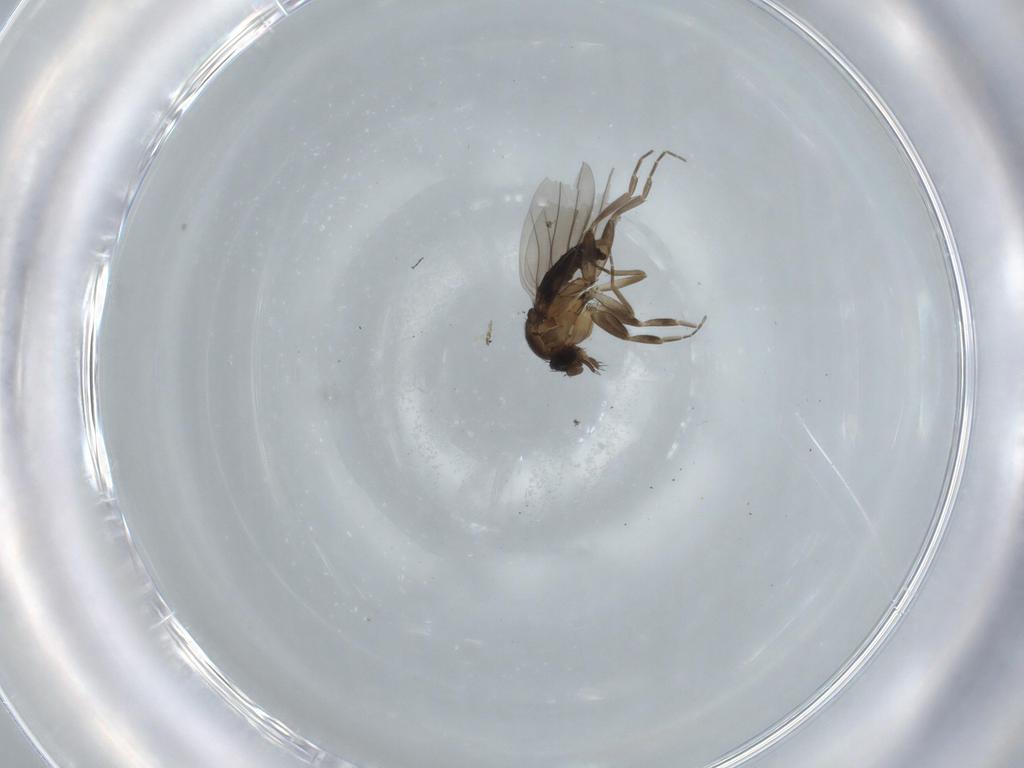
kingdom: Animalia
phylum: Arthropoda
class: Insecta
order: Diptera
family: Cecidomyiidae
